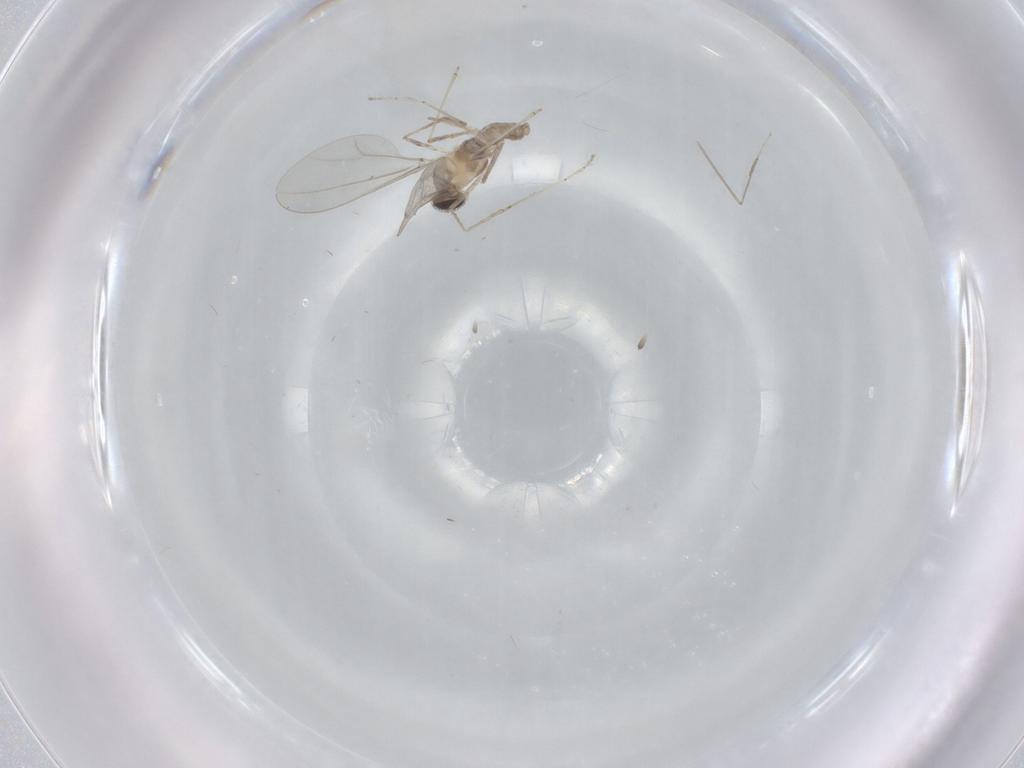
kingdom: Animalia
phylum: Arthropoda
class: Insecta
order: Diptera
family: Cecidomyiidae
